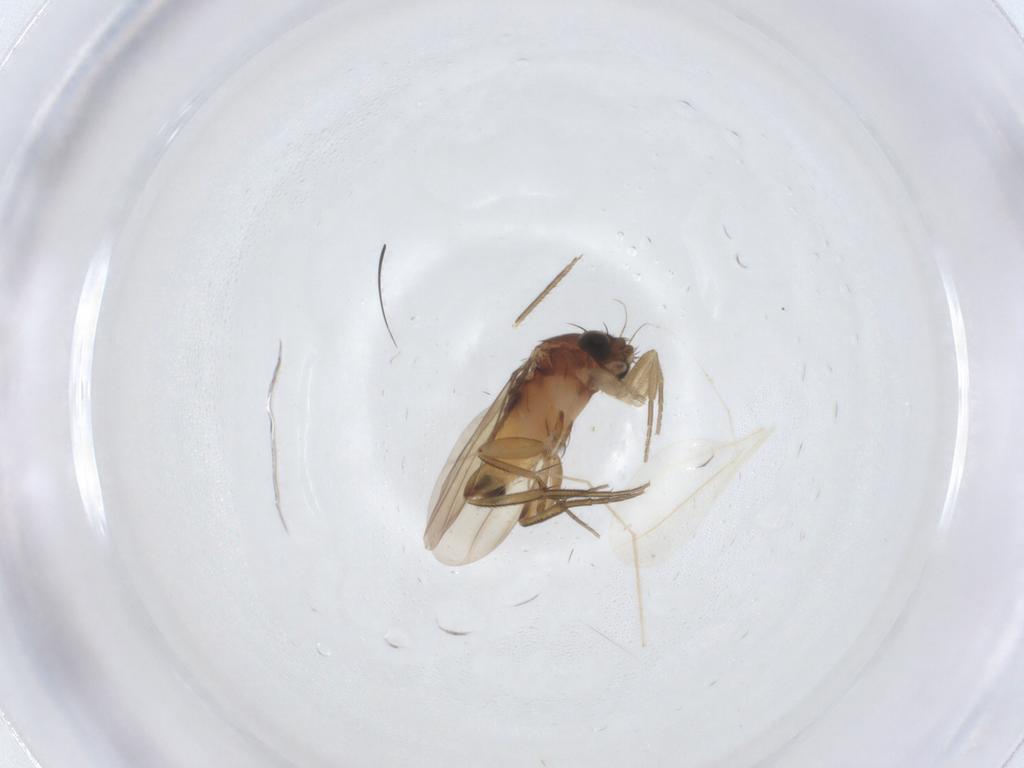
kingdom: Animalia
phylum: Arthropoda
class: Insecta
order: Diptera
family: Phoridae
